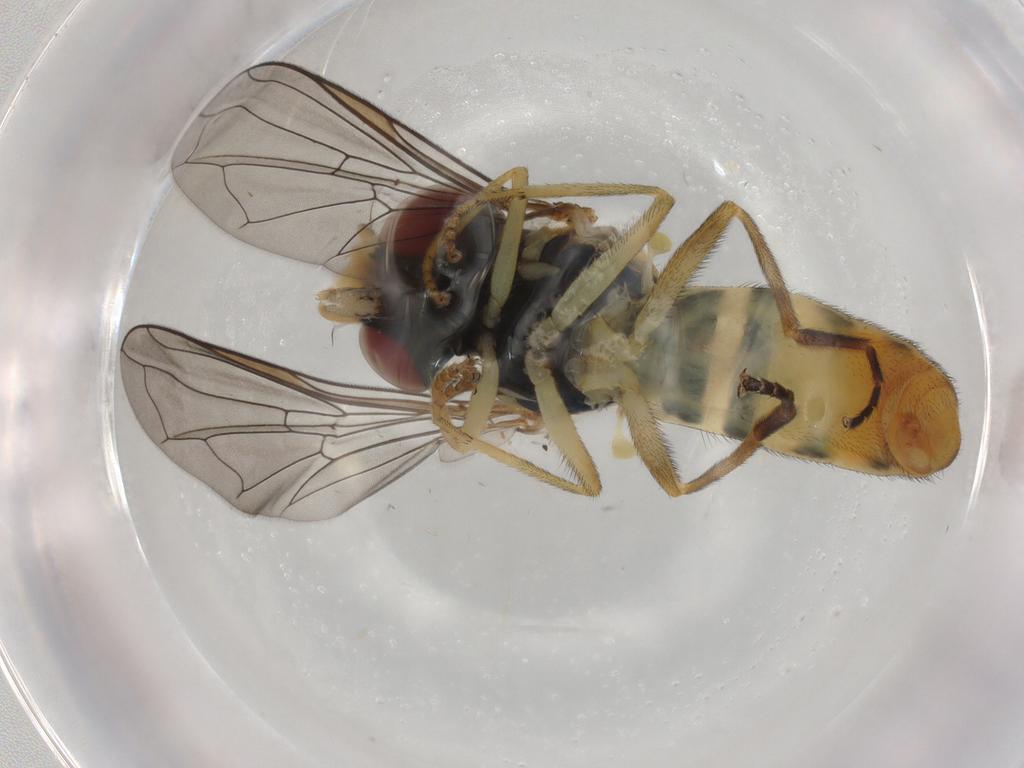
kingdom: Animalia
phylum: Arthropoda
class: Insecta
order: Diptera
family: Syrphidae
